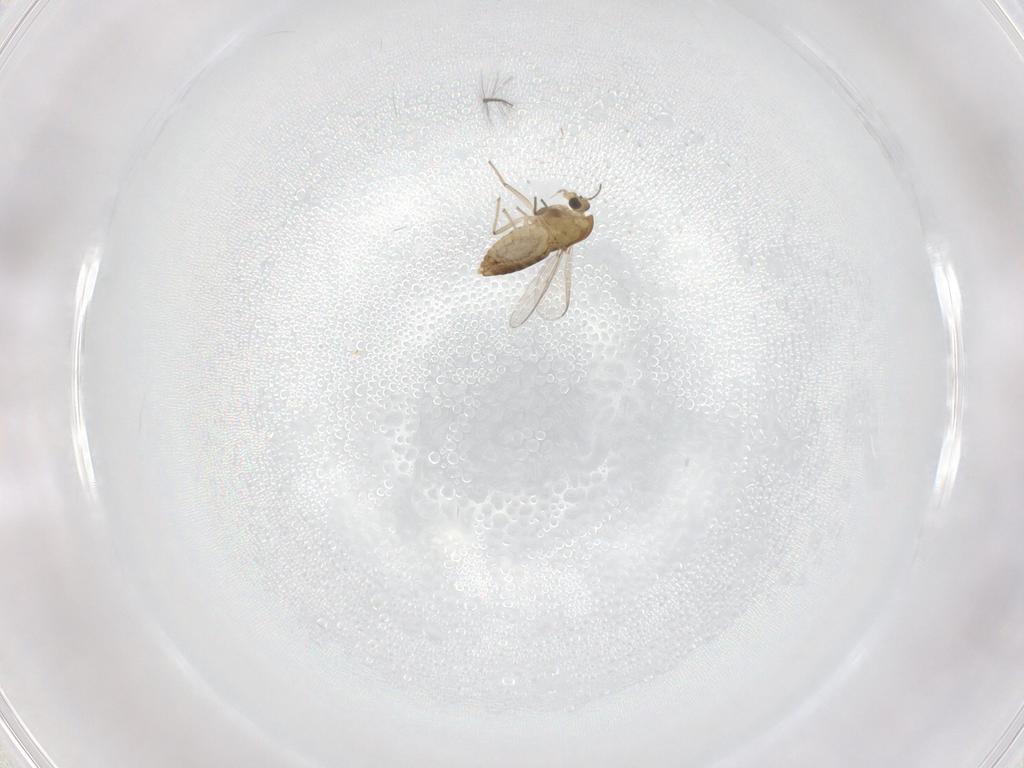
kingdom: Animalia
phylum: Arthropoda
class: Insecta
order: Diptera
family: Chironomidae
